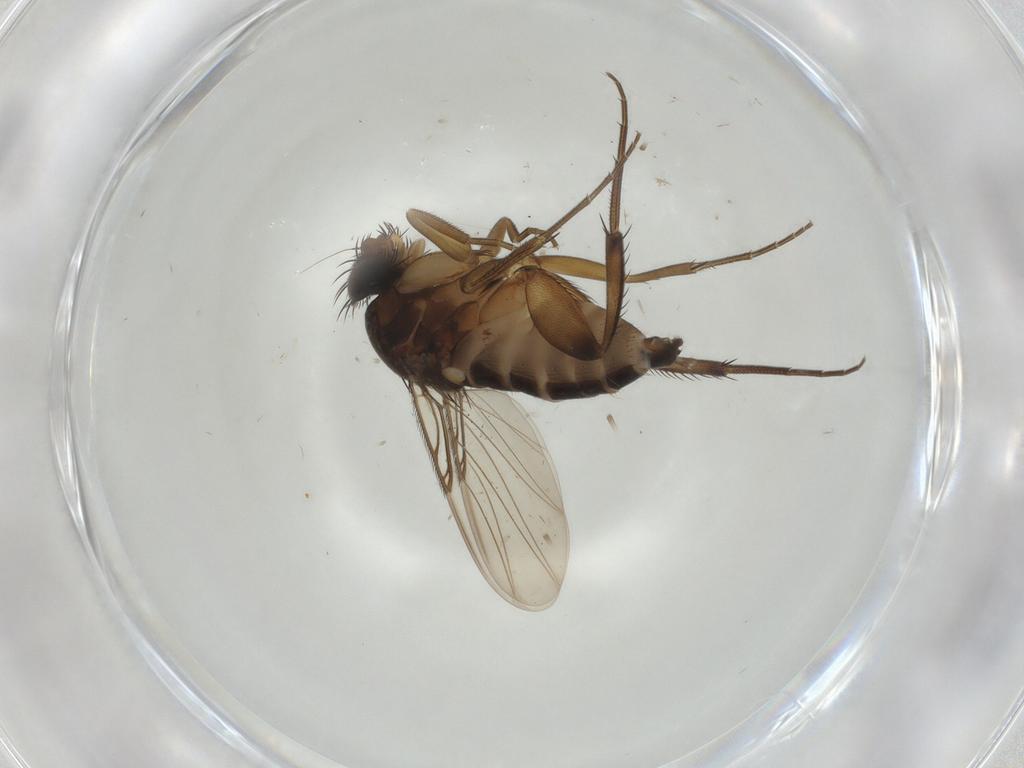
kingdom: Animalia
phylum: Arthropoda
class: Insecta
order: Diptera
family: Phoridae
